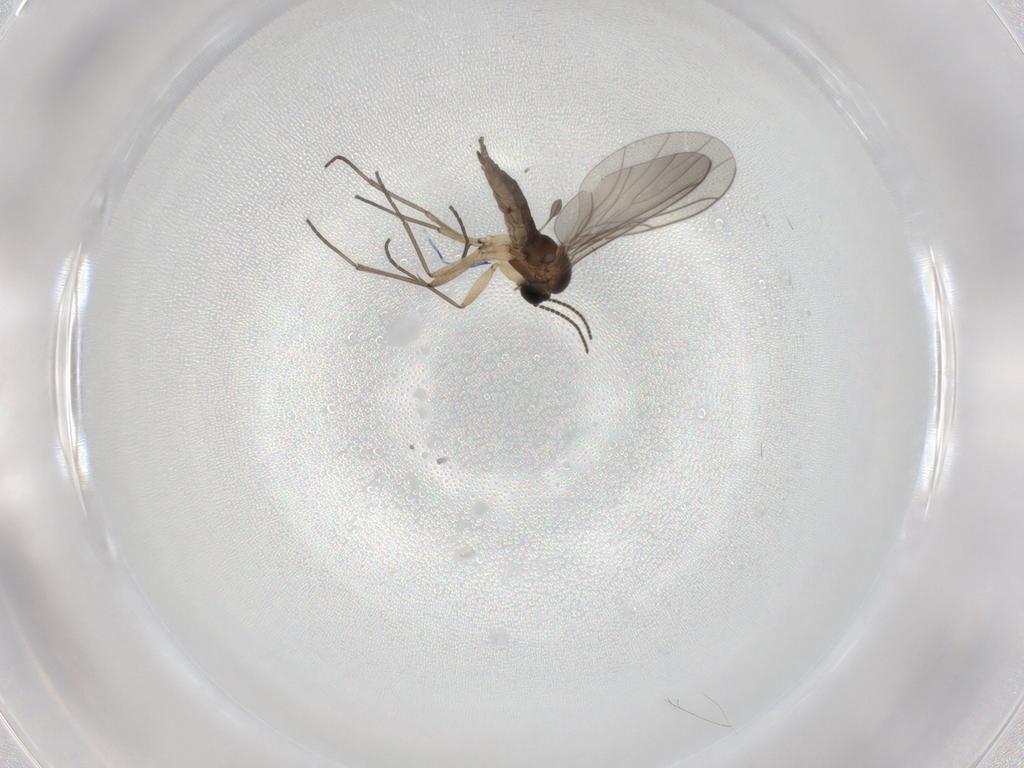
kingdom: Animalia
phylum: Arthropoda
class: Insecta
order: Diptera
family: Sciaridae
